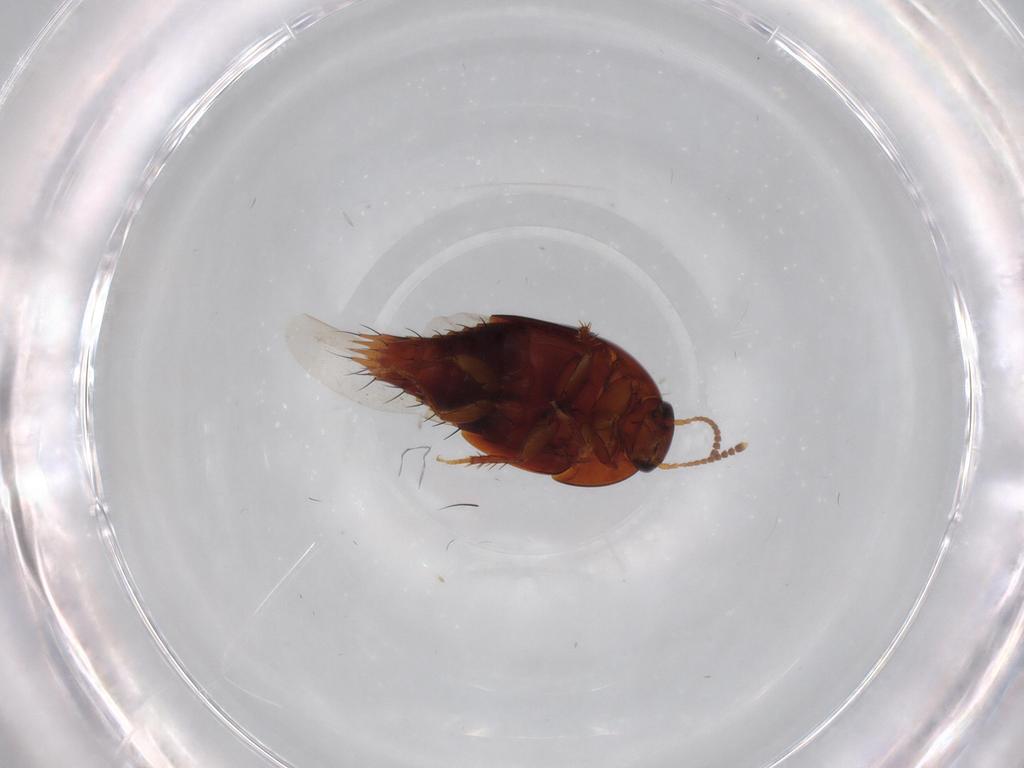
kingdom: Animalia
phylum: Arthropoda
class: Insecta
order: Coleoptera
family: Staphylinidae
